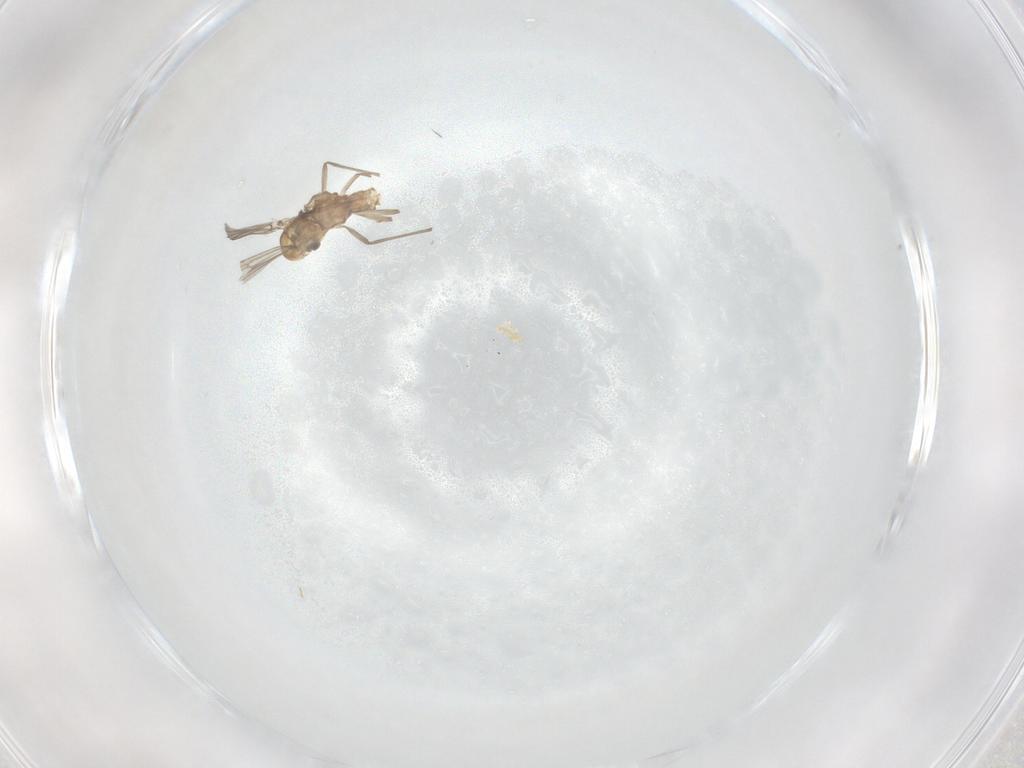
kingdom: Animalia
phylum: Arthropoda
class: Insecta
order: Diptera
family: Chironomidae
